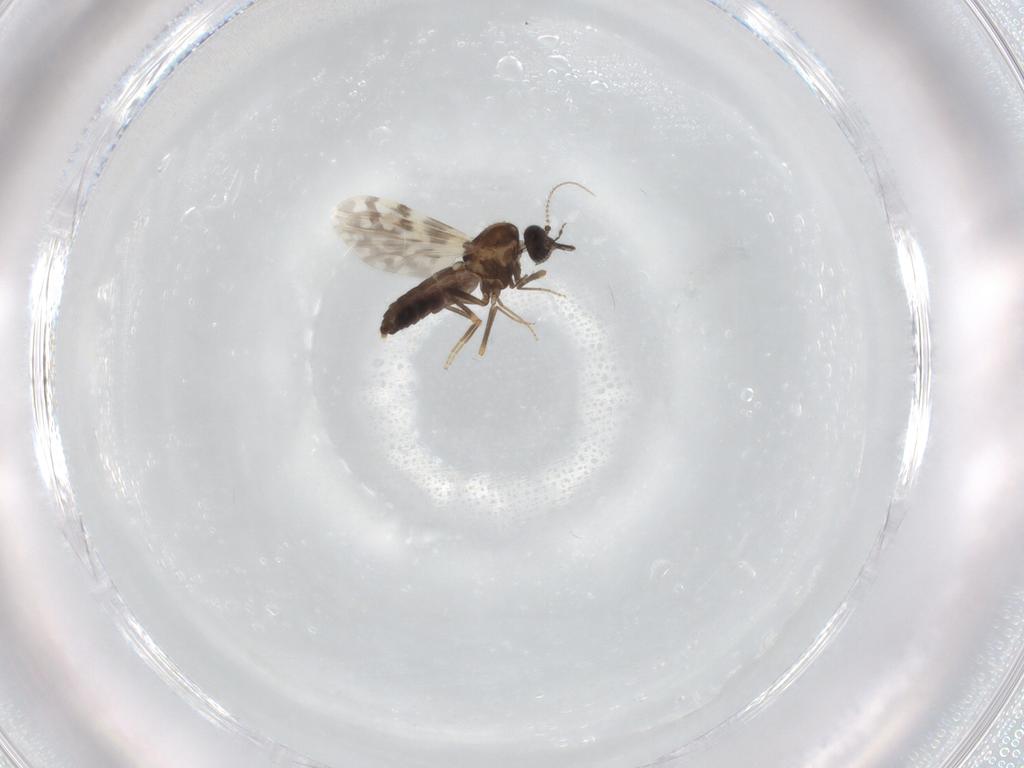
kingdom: Animalia
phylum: Arthropoda
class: Insecta
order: Diptera
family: Ceratopogonidae
